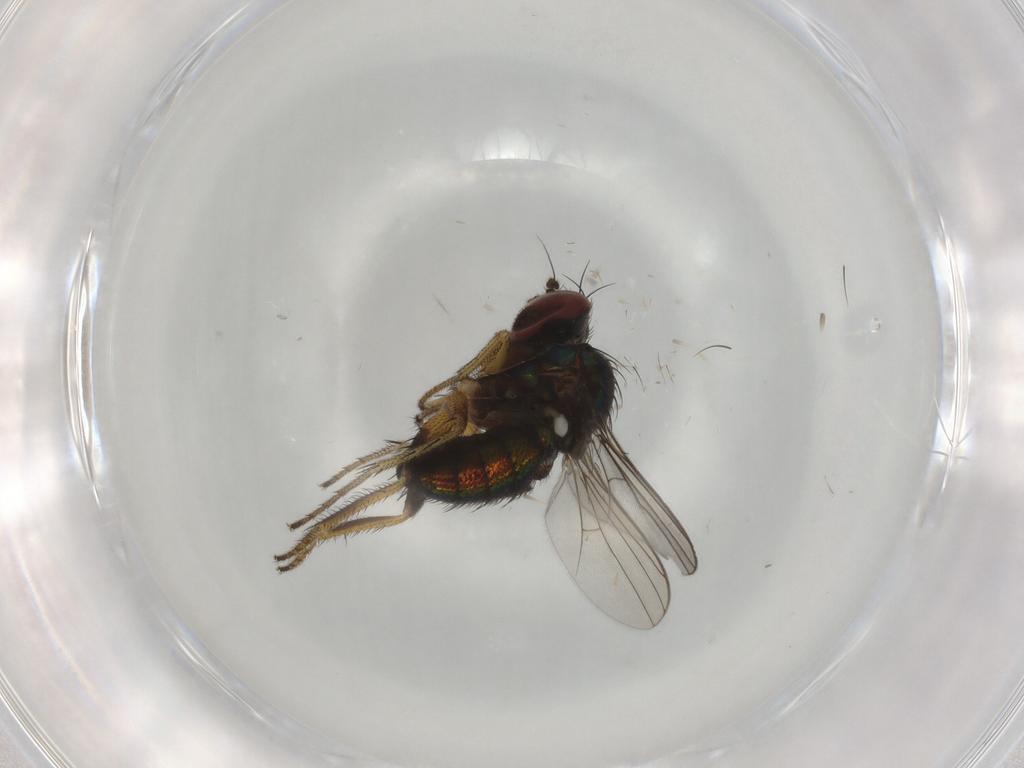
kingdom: Animalia
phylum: Arthropoda
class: Insecta
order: Diptera
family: Dolichopodidae
